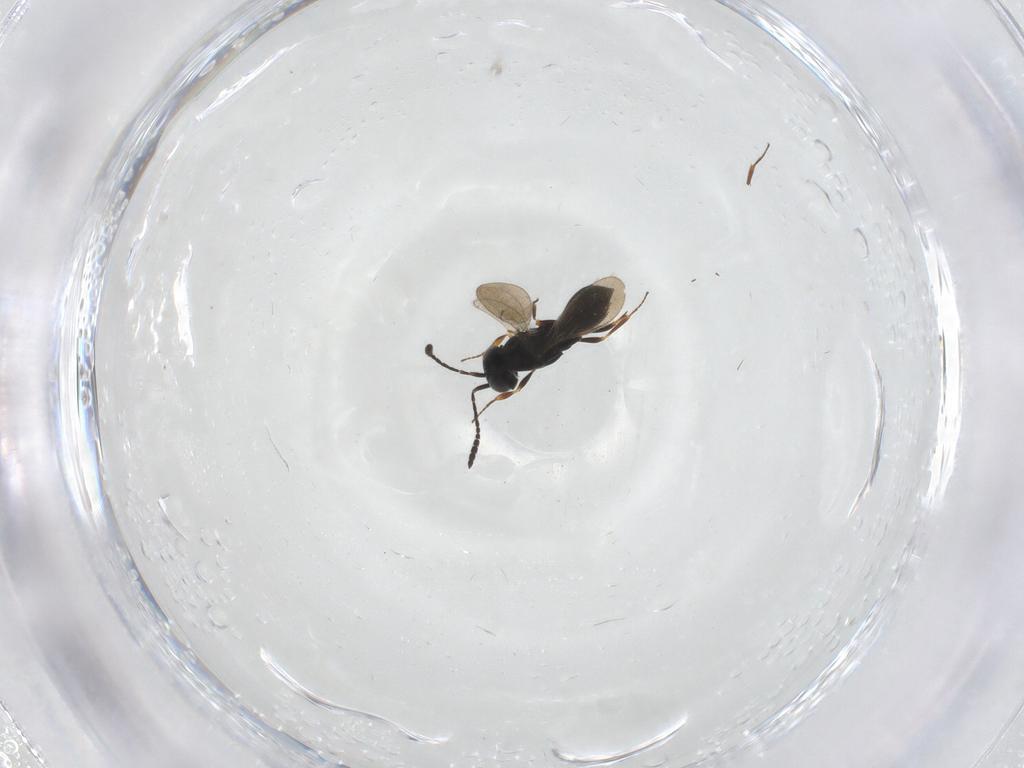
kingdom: Animalia
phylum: Arthropoda
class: Insecta
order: Hymenoptera
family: Scelionidae
